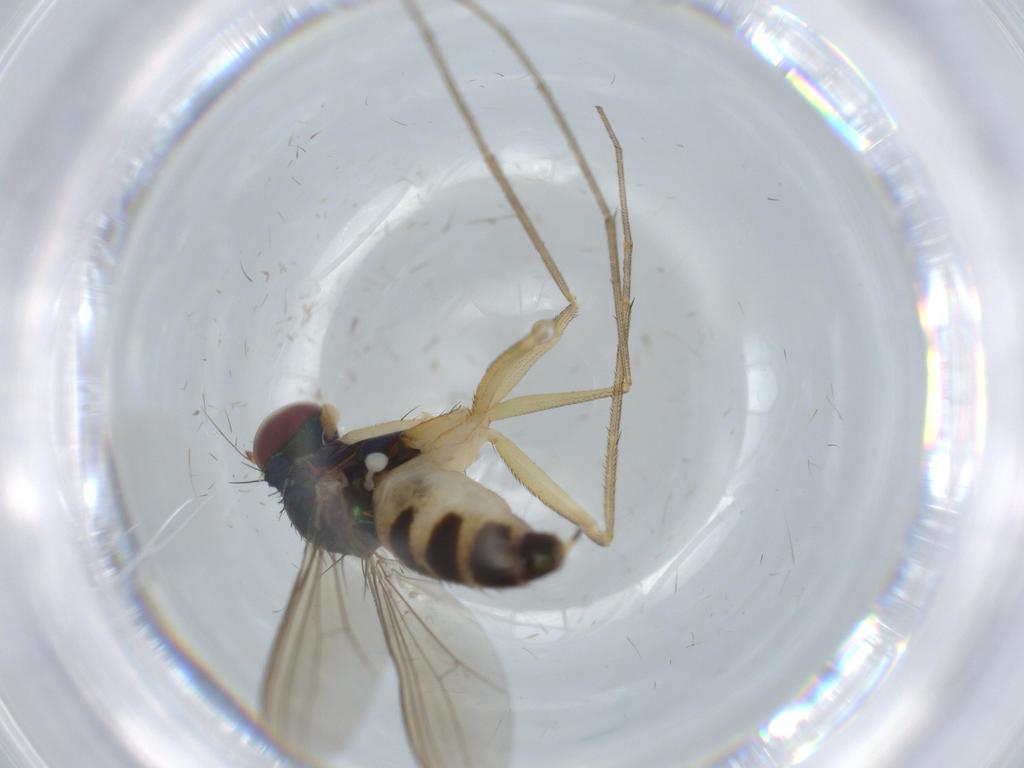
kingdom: Animalia
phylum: Arthropoda
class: Insecta
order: Diptera
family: Dolichopodidae
